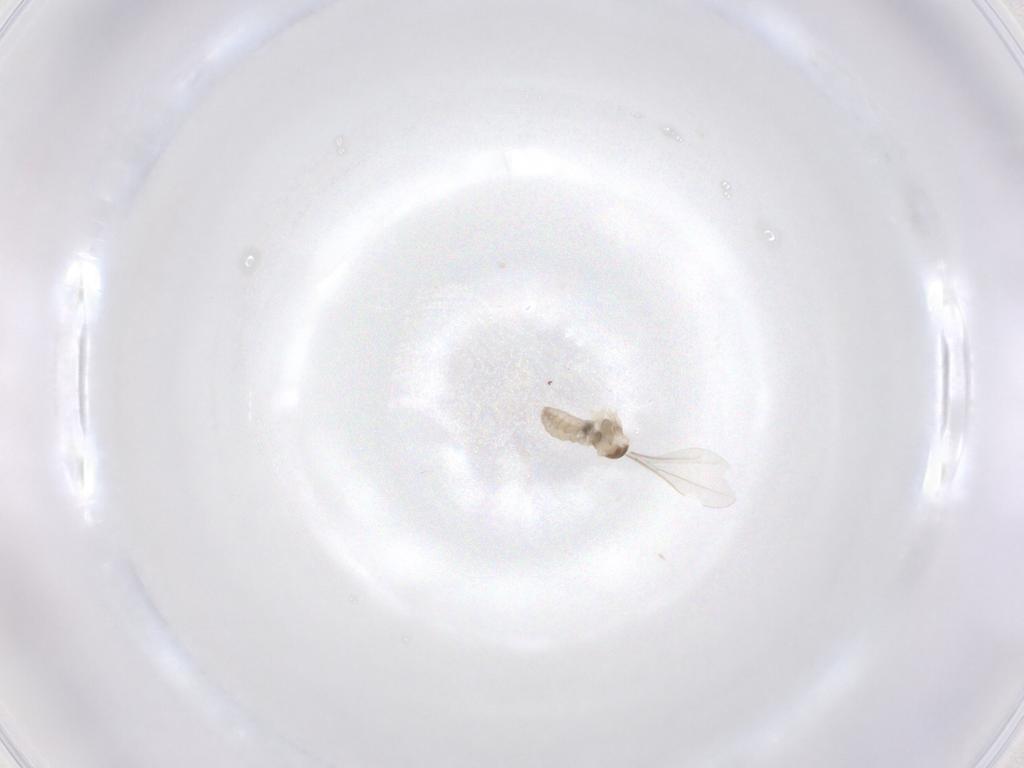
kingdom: Animalia
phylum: Arthropoda
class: Insecta
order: Diptera
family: Cecidomyiidae
